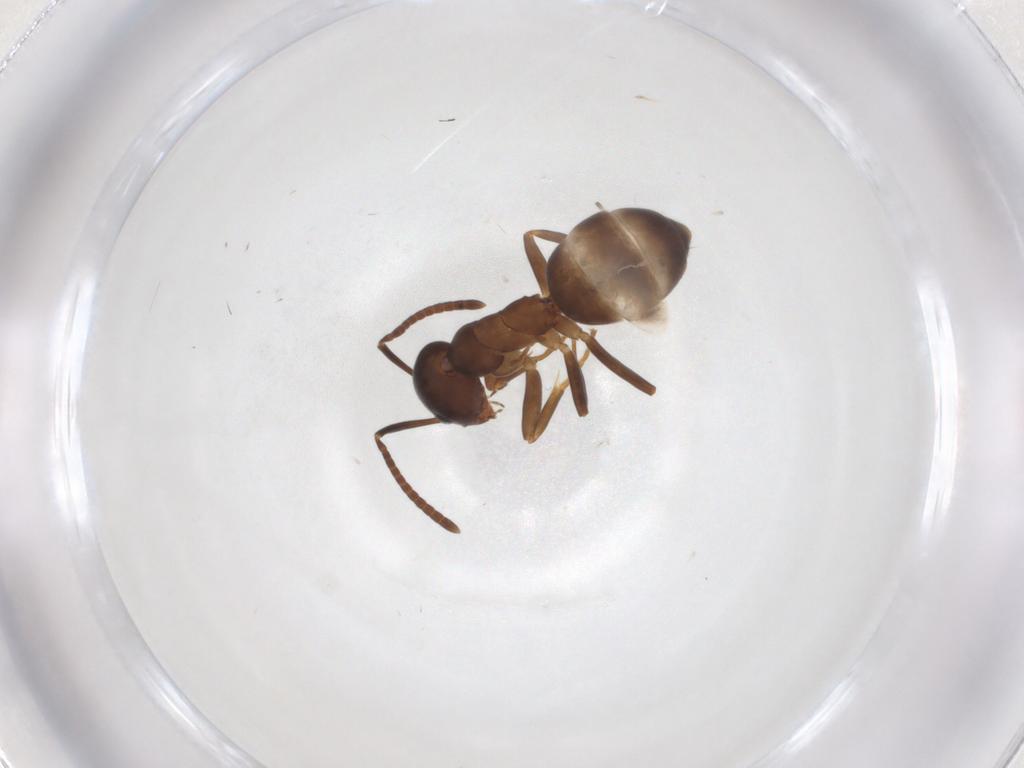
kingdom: Animalia
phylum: Arthropoda
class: Insecta
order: Hymenoptera
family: Formicidae
